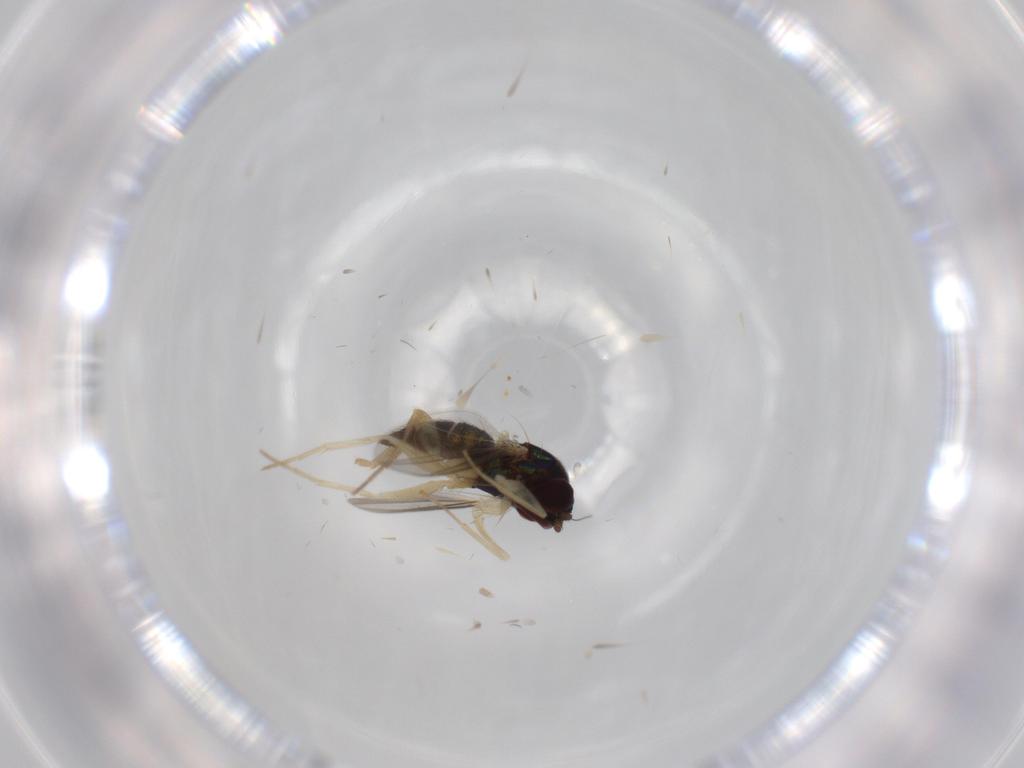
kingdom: Animalia
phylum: Arthropoda
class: Insecta
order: Diptera
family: Dolichopodidae
